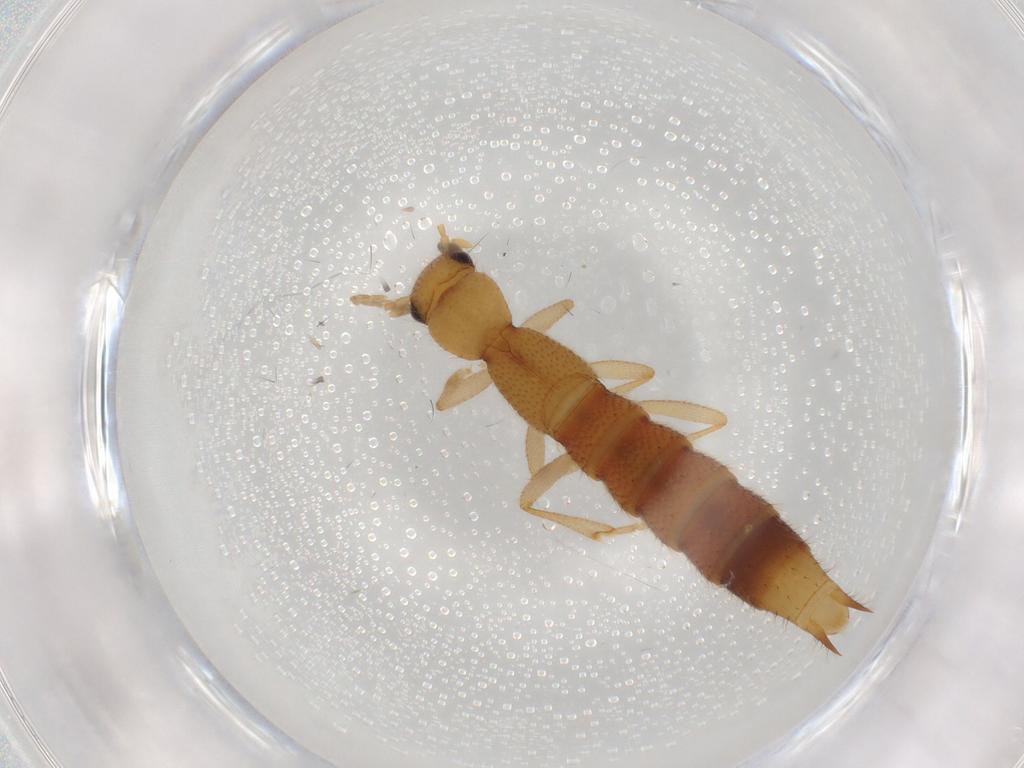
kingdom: Animalia
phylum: Arthropoda
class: Insecta
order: Coleoptera
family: Staphylinidae
